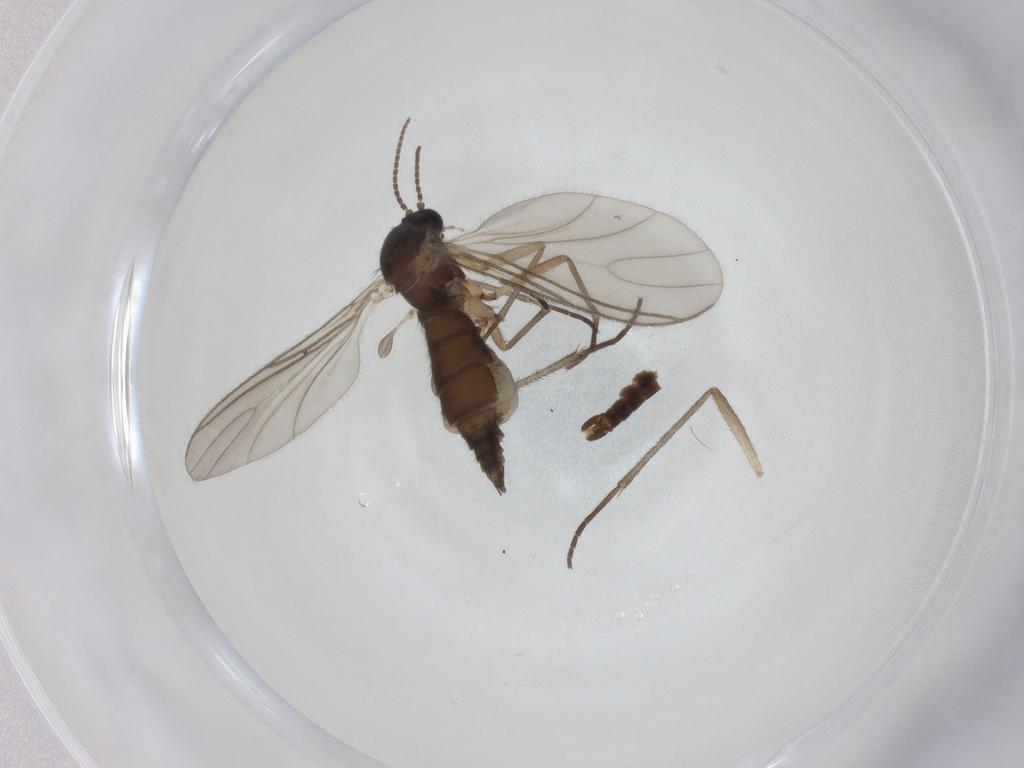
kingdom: Animalia
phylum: Arthropoda
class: Insecta
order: Diptera
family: Sciaridae
